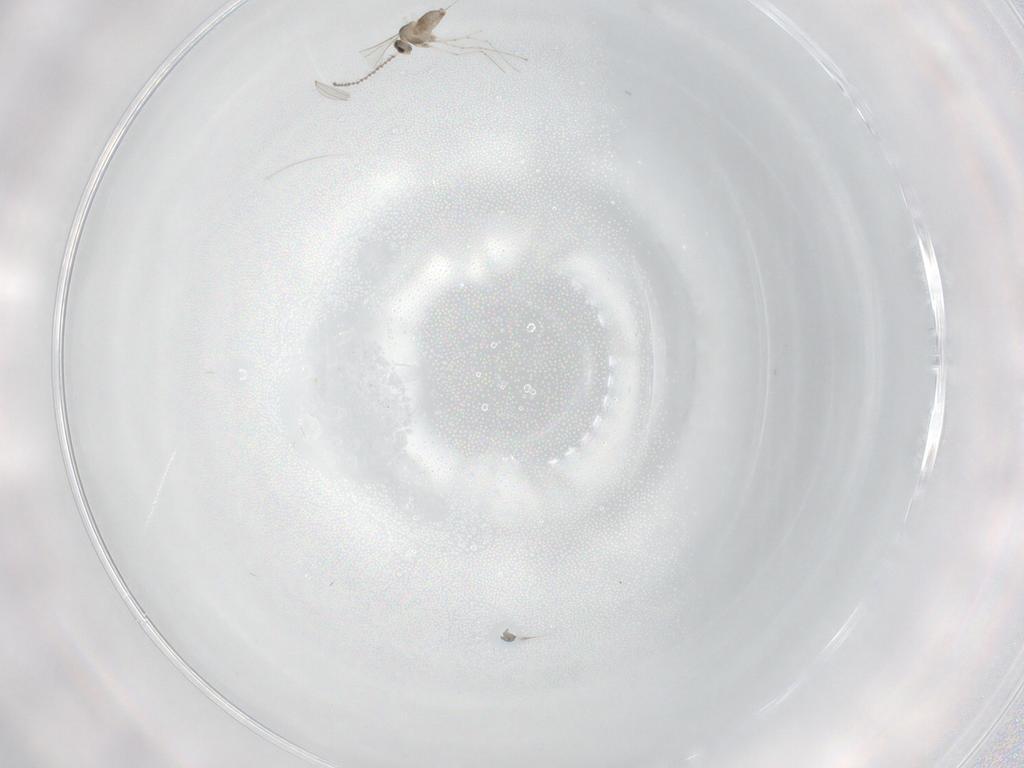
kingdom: Animalia
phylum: Arthropoda
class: Insecta
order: Diptera
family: Cecidomyiidae
